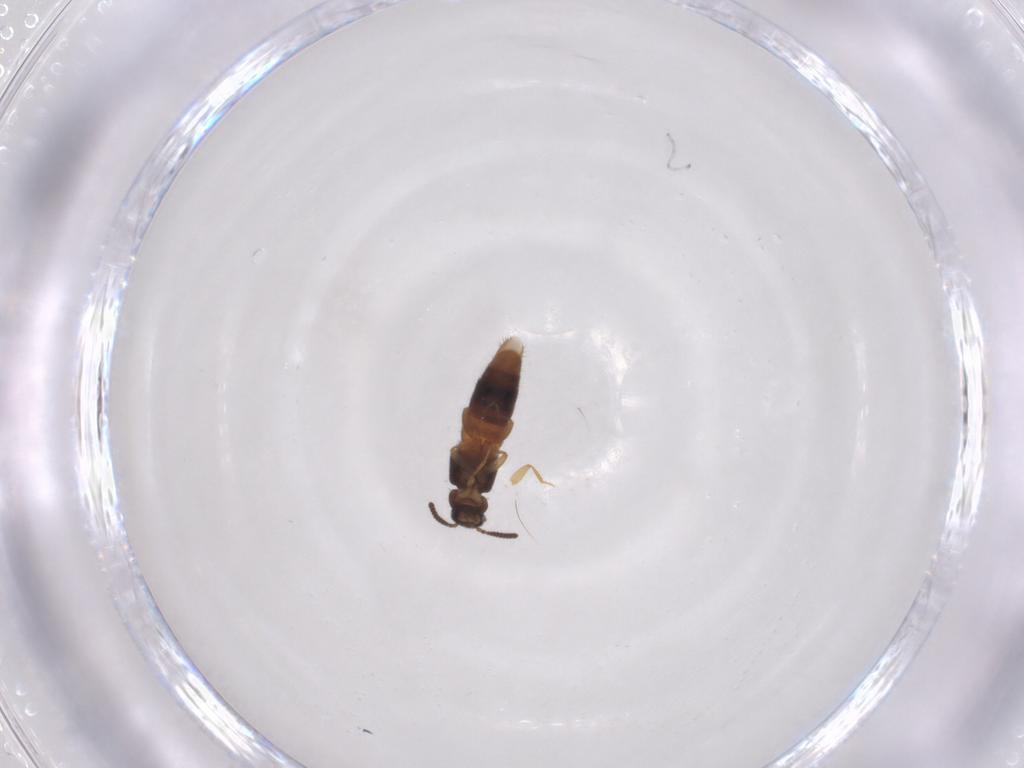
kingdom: Animalia
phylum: Arthropoda
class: Insecta
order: Coleoptera
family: Staphylinidae
